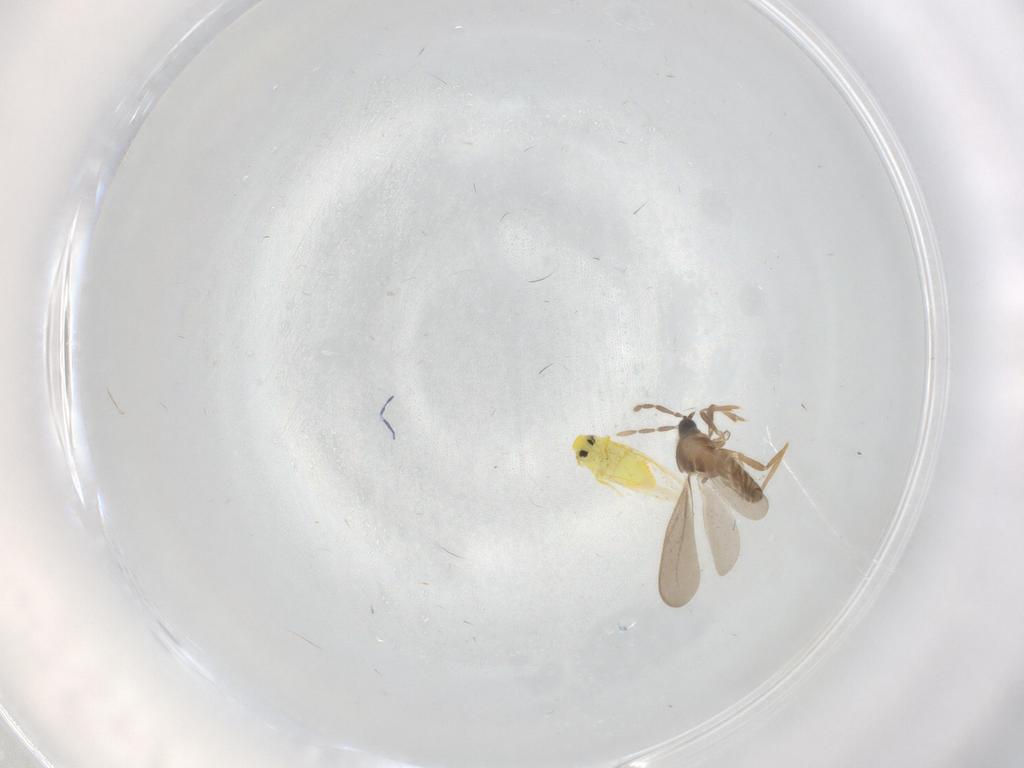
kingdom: Animalia
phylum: Arthropoda
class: Insecta
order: Hemiptera
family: Aleyrodidae
